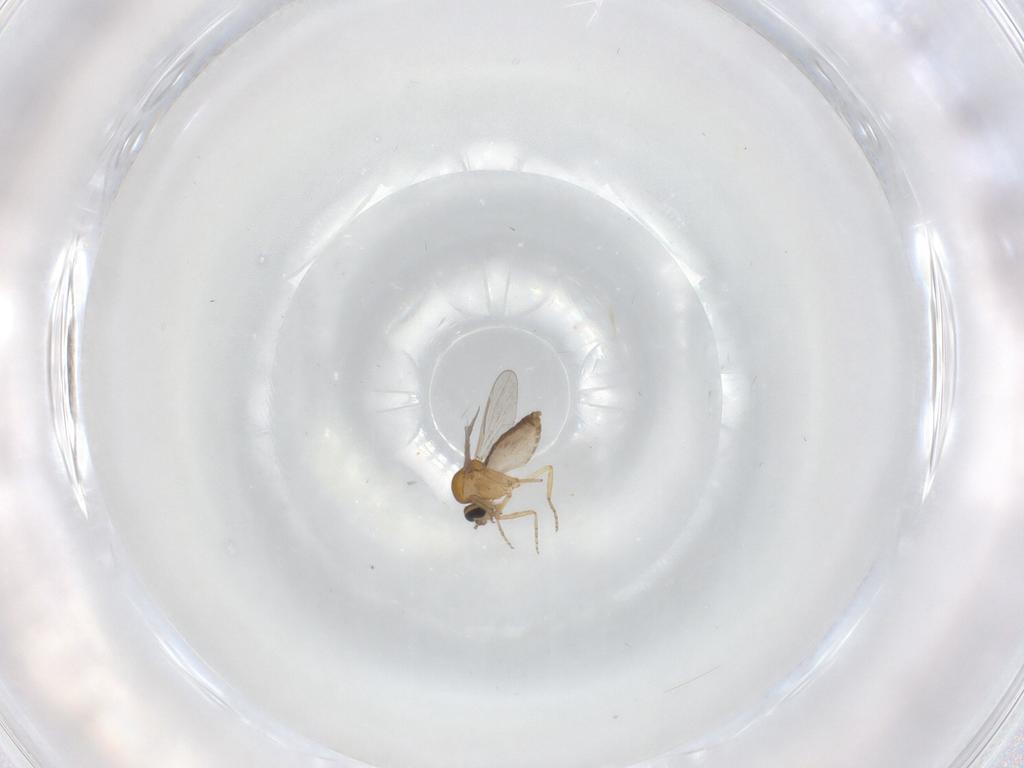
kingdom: Animalia
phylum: Arthropoda
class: Insecta
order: Diptera
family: Chironomidae
